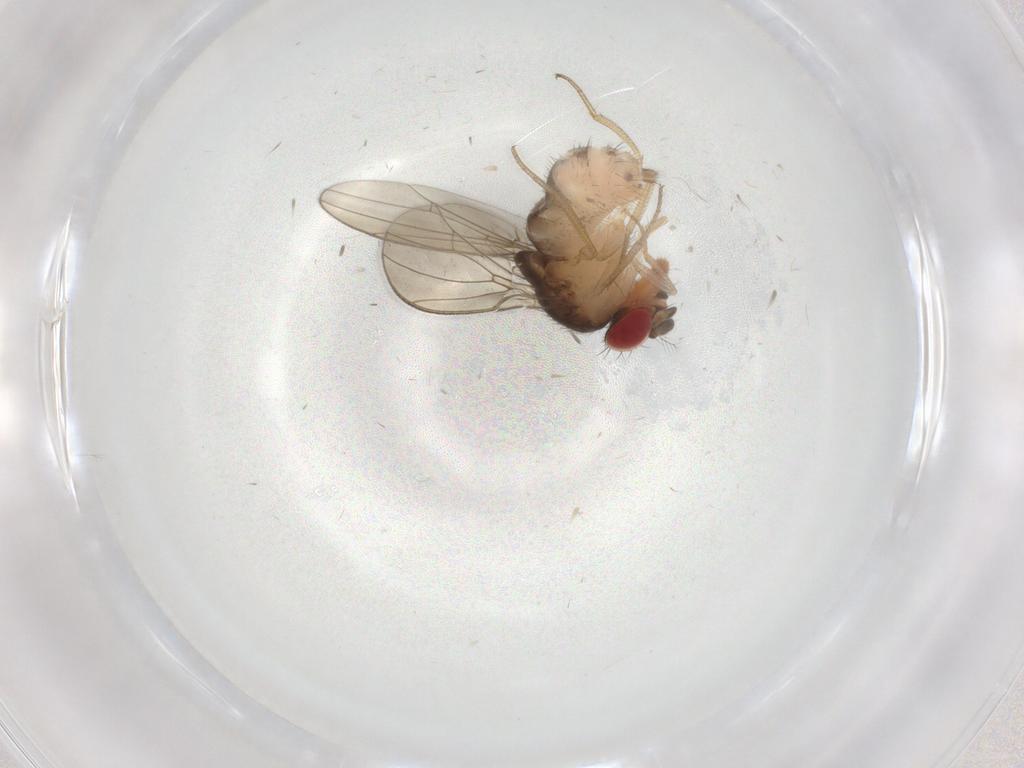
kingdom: Animalia
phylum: Arthropoda
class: Insecta
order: Diptera
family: Drosophilidae
